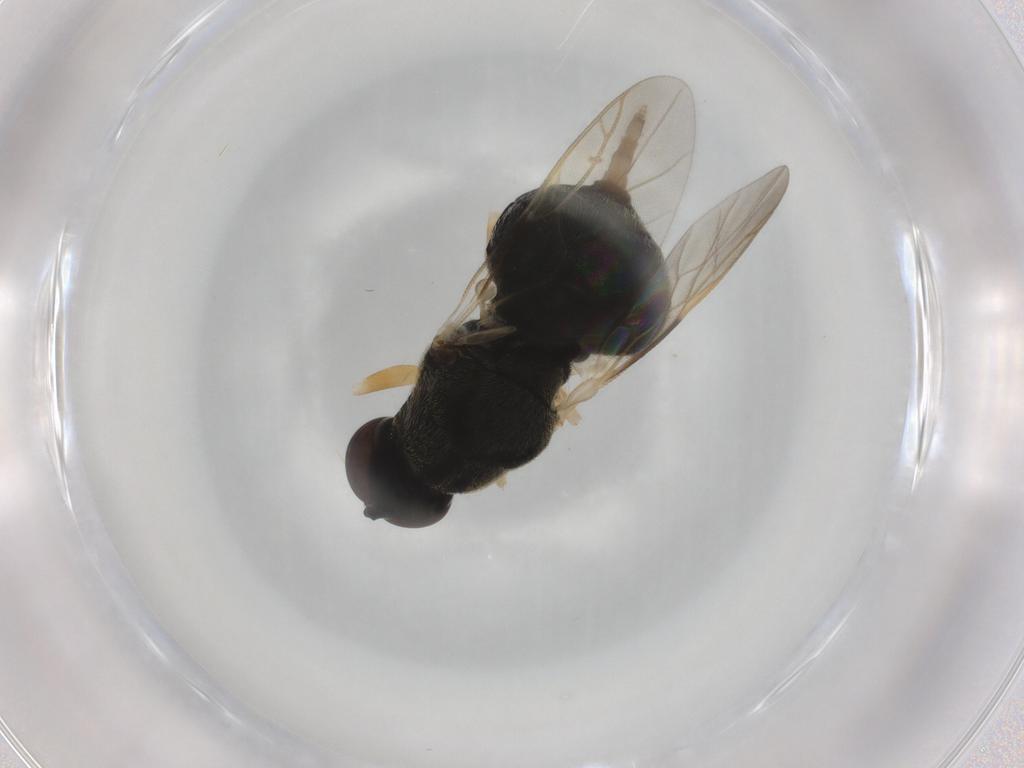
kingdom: Animalia
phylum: Arthropoda
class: Insecta
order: Diptera
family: Stratiomyidae
